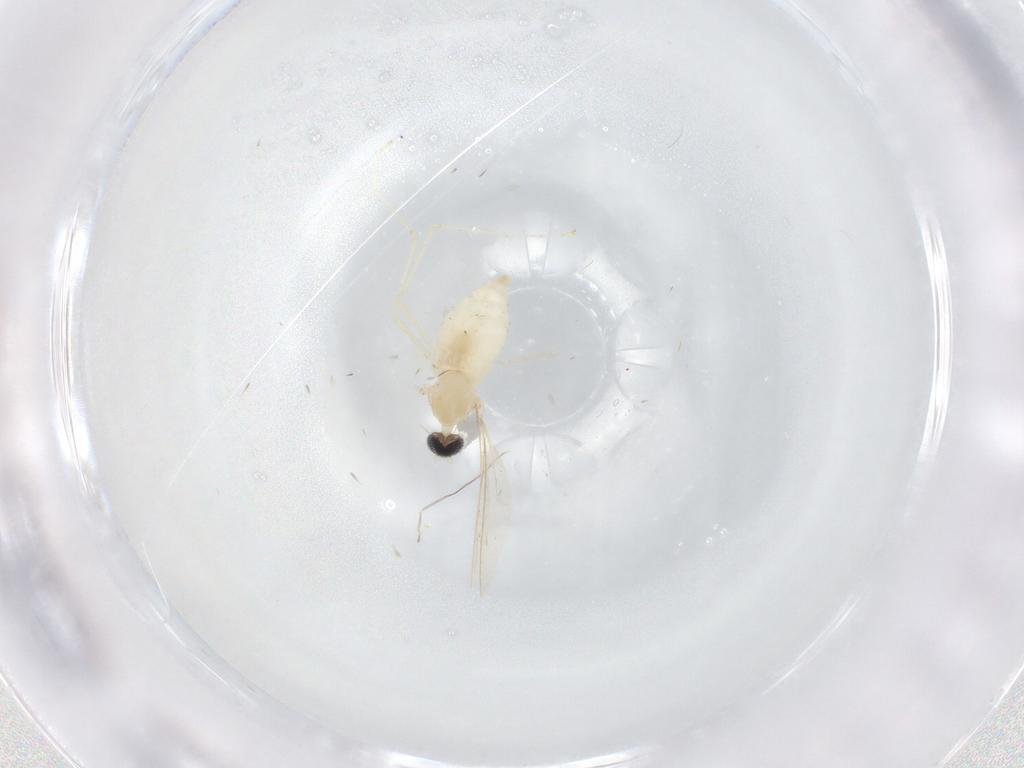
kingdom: Animalia
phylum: Arthropoda
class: Insecta
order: Diptera
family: Cecidomyiidae
